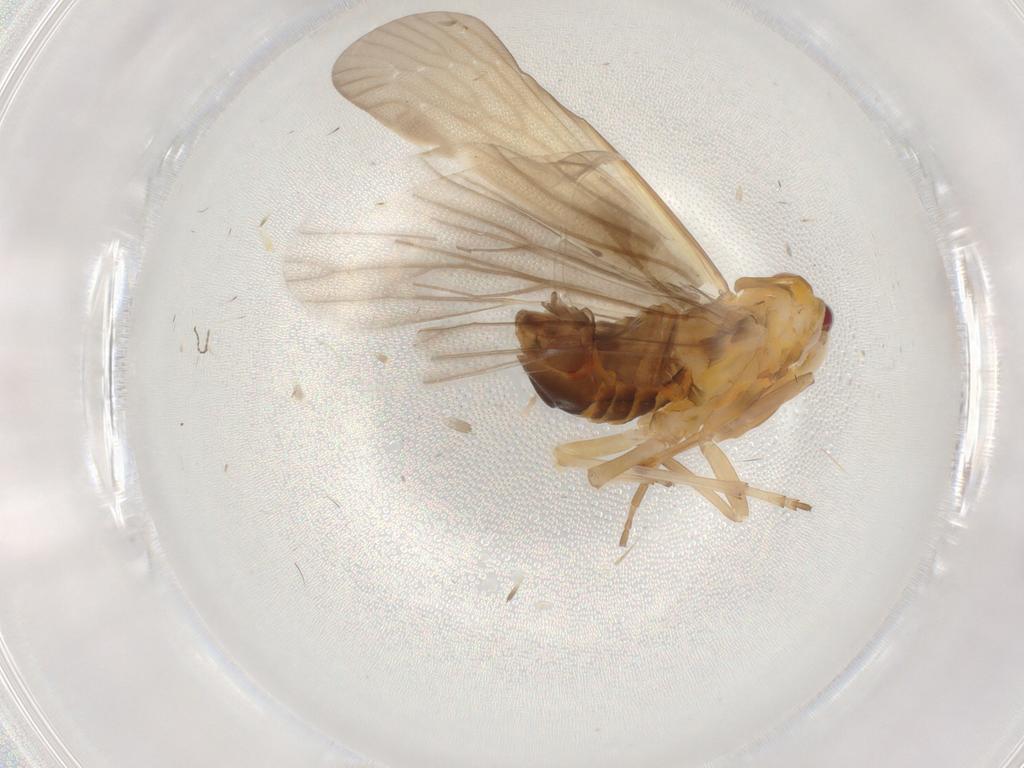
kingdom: Animalia
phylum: Arthropoda
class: Insecta
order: Hemiptera
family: Derbidae
